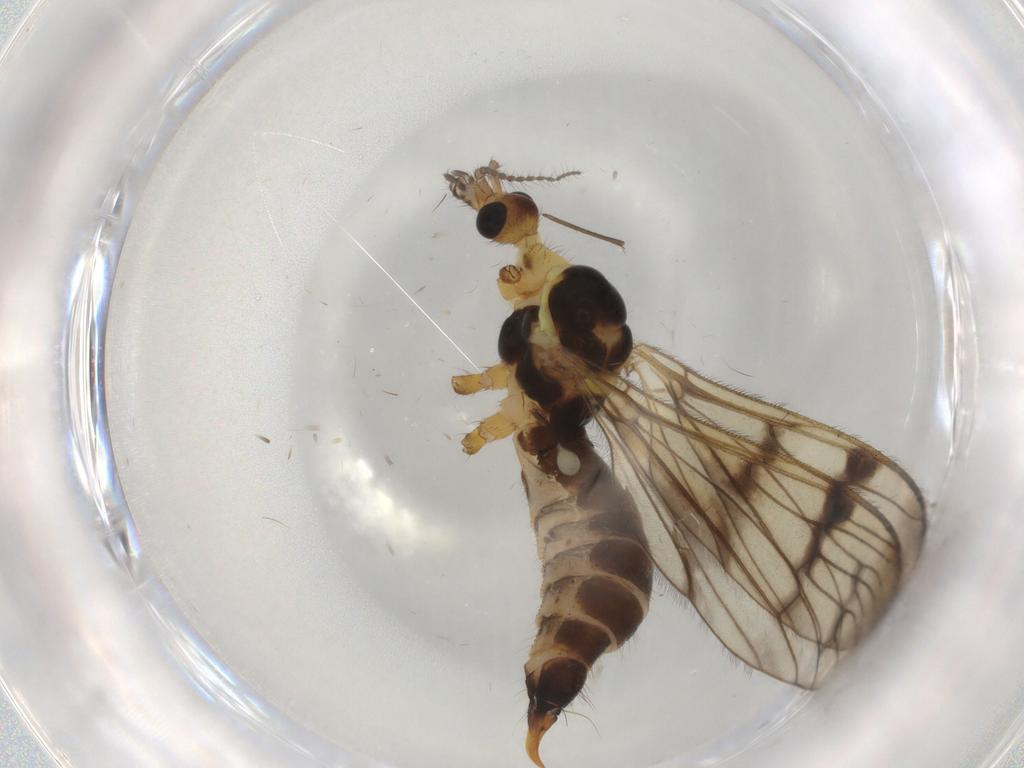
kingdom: Animalia
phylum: Arthropoda
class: Insecta
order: Diptera
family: Limoniidae
